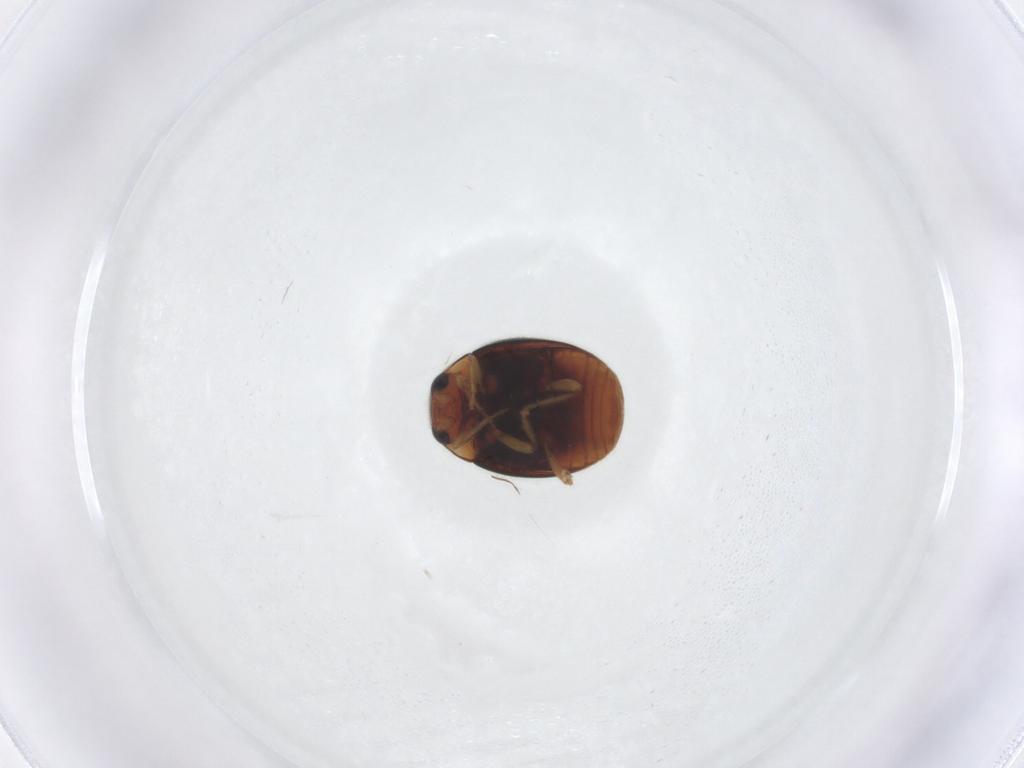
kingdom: Animalia
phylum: Arthropoda
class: Insecta
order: Coleoptera
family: Coccinellidae
